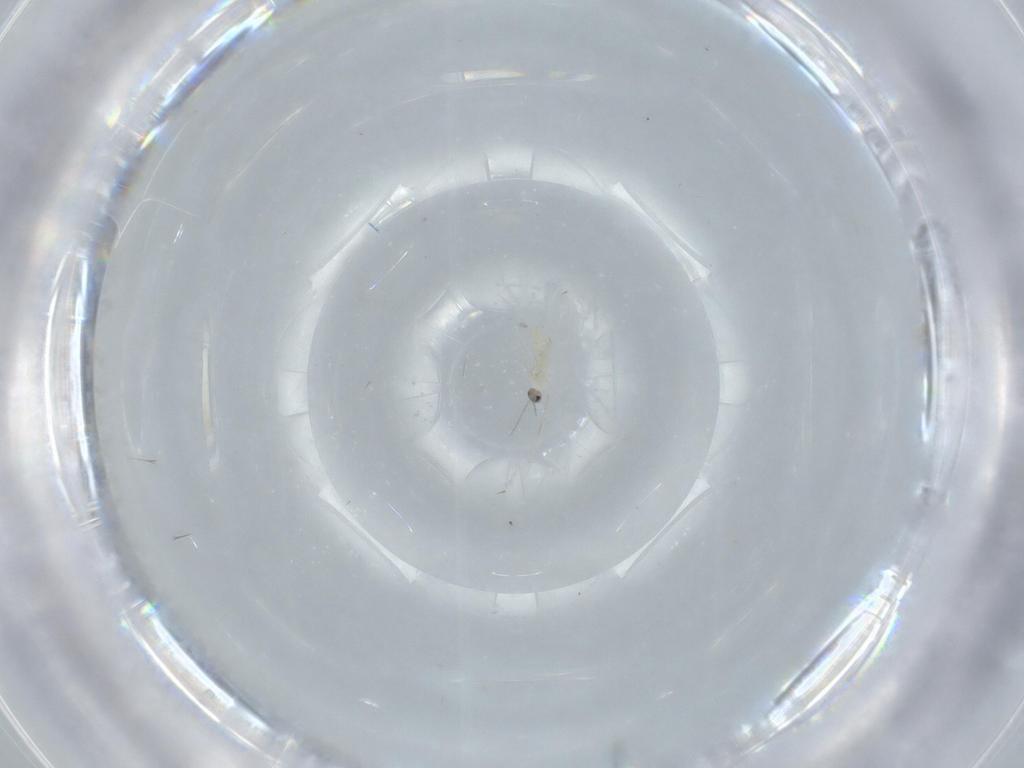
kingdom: Animalia
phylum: Arthropoda
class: Insecta
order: Diptera
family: Cecidomyiidae
